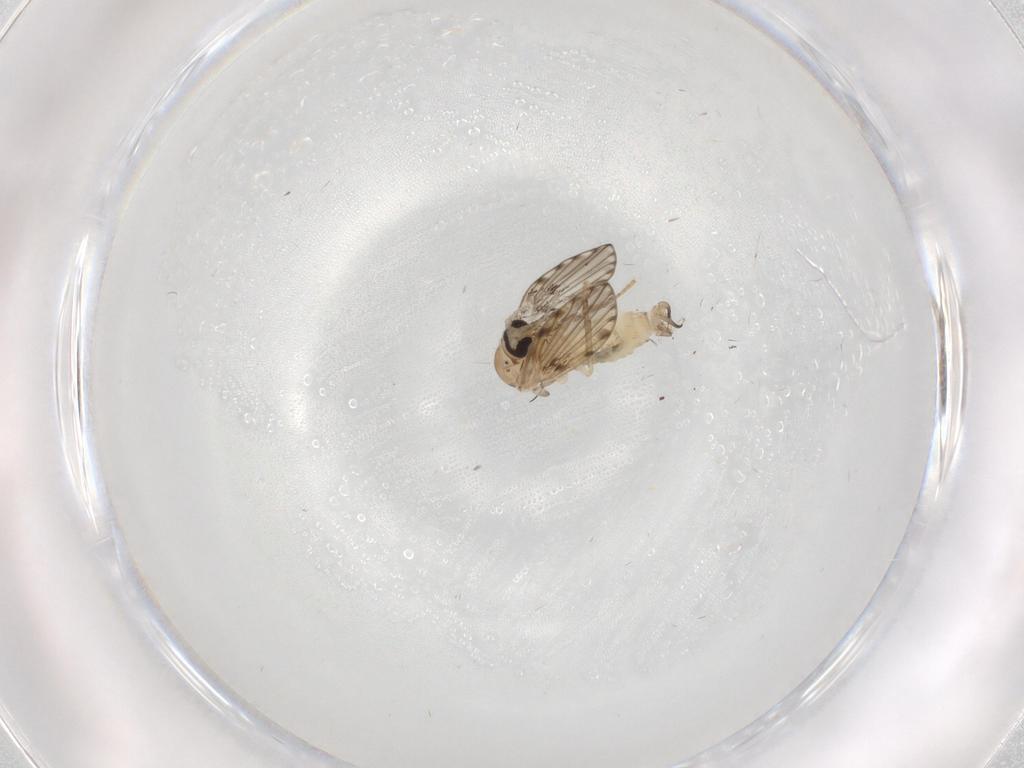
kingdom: Animalia
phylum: Arthropoda
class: Insecta
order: Diptera
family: Psychodidae
